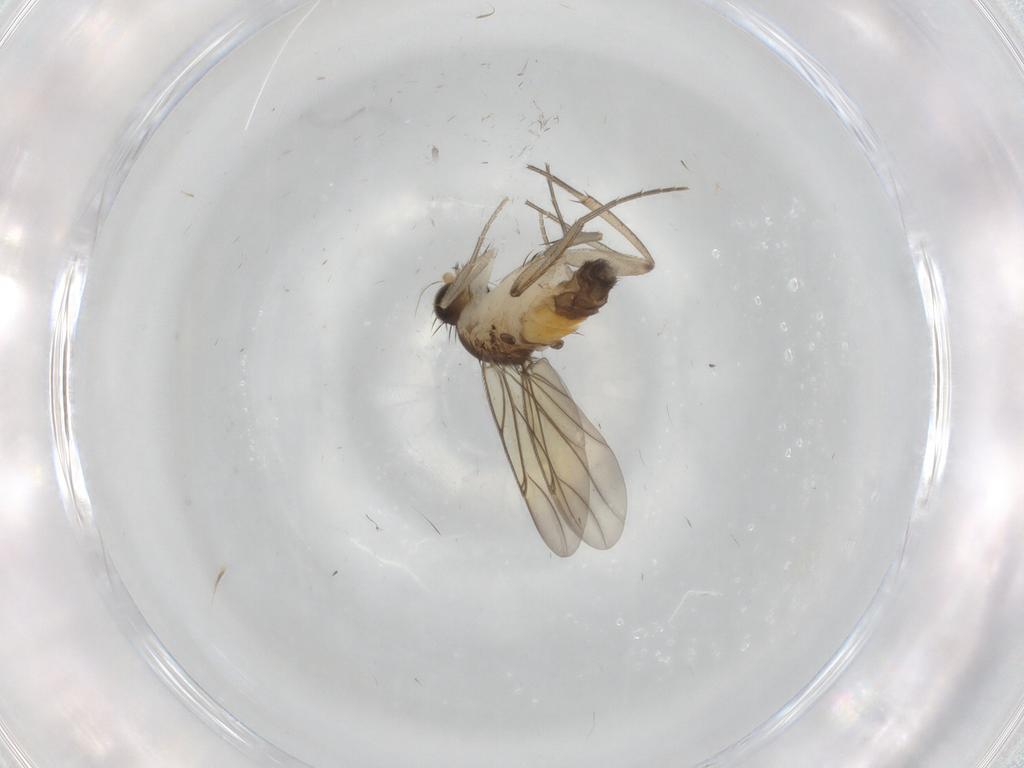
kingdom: Animalia
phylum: Arthropoda
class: Insecta
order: Diptera
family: Phoridae
